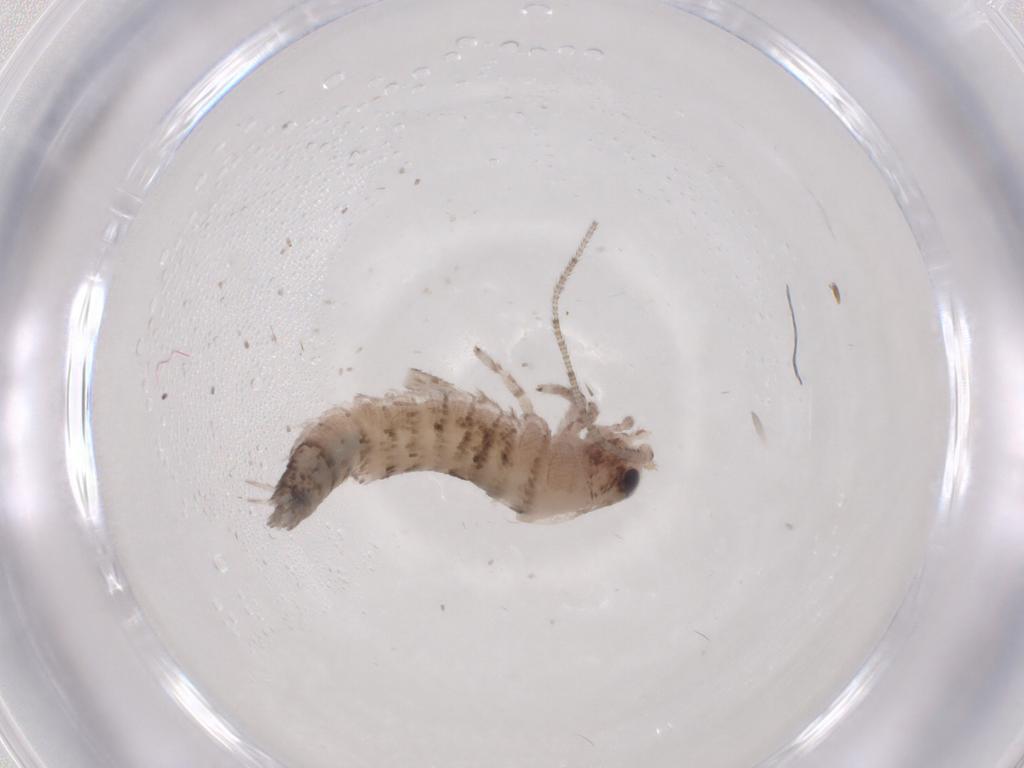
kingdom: Animalia
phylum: Arthropoda
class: Insecta
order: Archaeognatha
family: Machilidae
